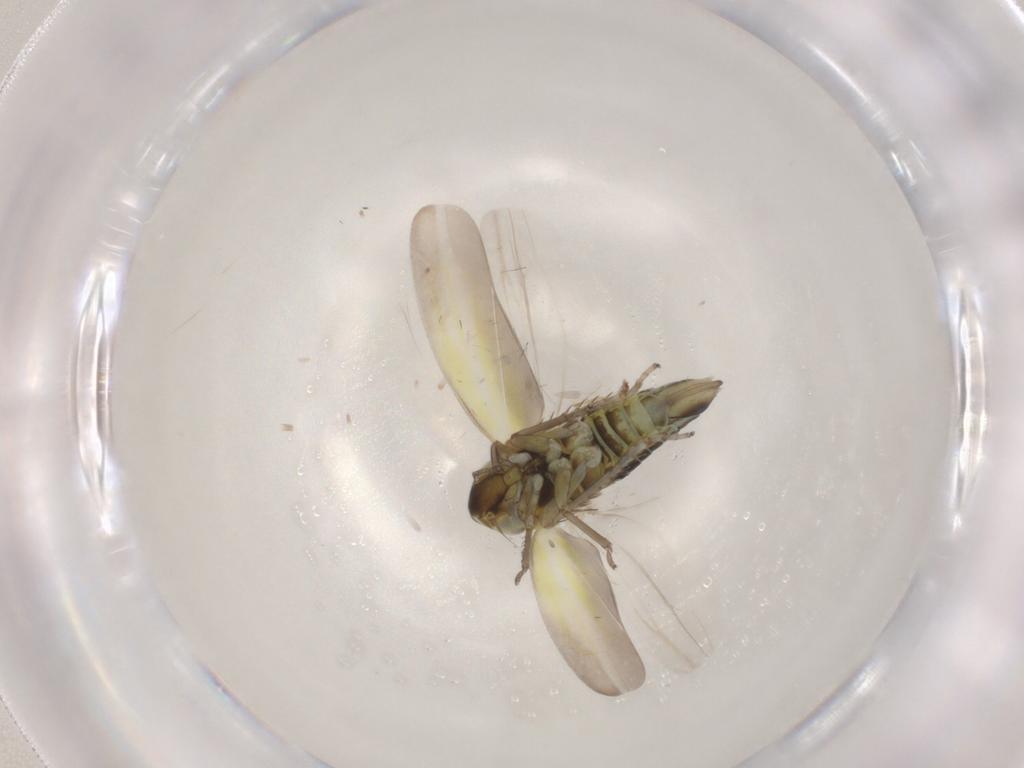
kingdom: Animalia
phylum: Arthropoda
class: Insecta
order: Hemiptera
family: Cicadellidae
